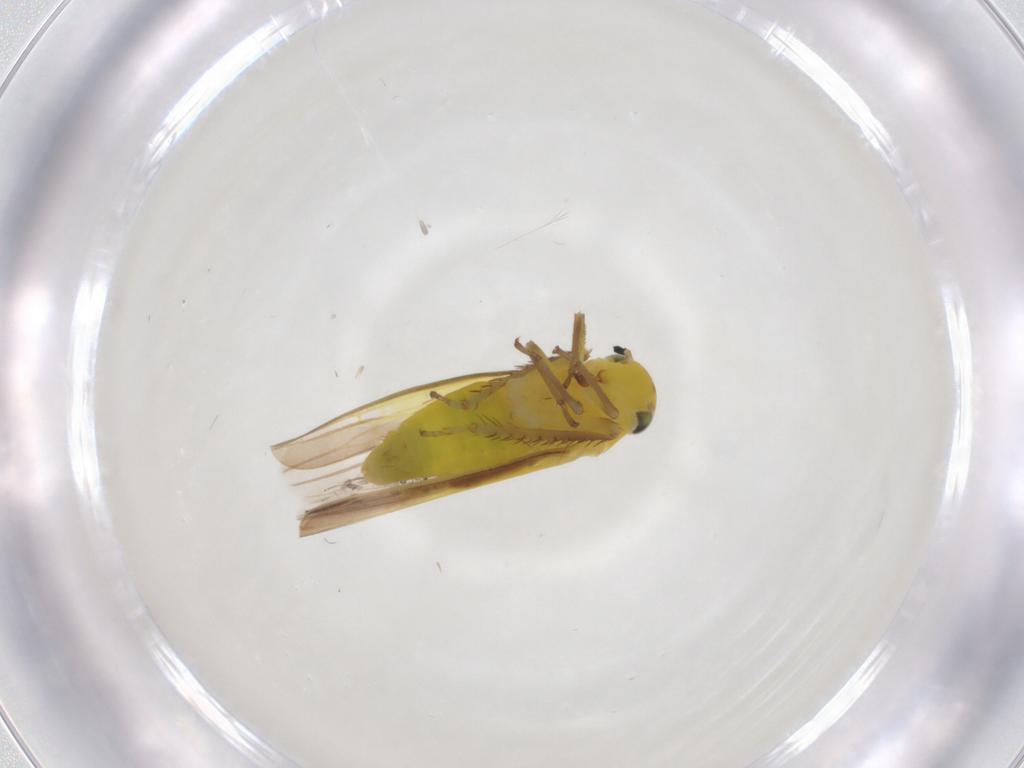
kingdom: Animalia
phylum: Arthropoda
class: Insecta
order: Hemiptera
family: Cicadellidae
